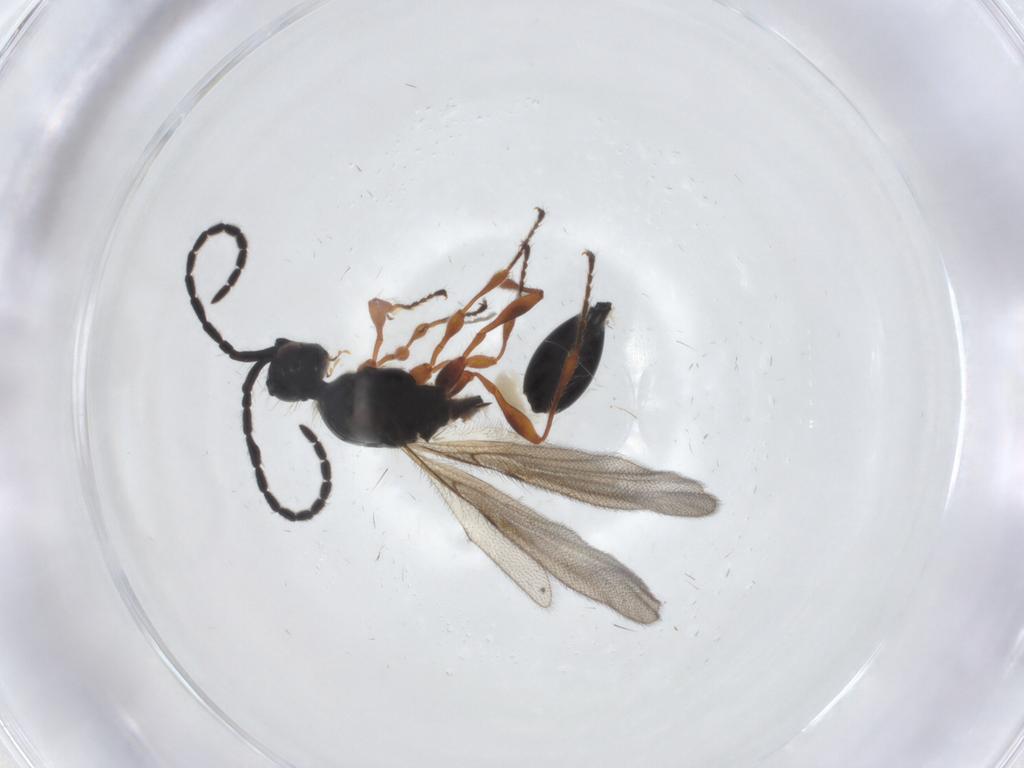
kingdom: Animalia
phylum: Arthropoda
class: Insecta
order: Hymenoptera
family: Diapriidae
